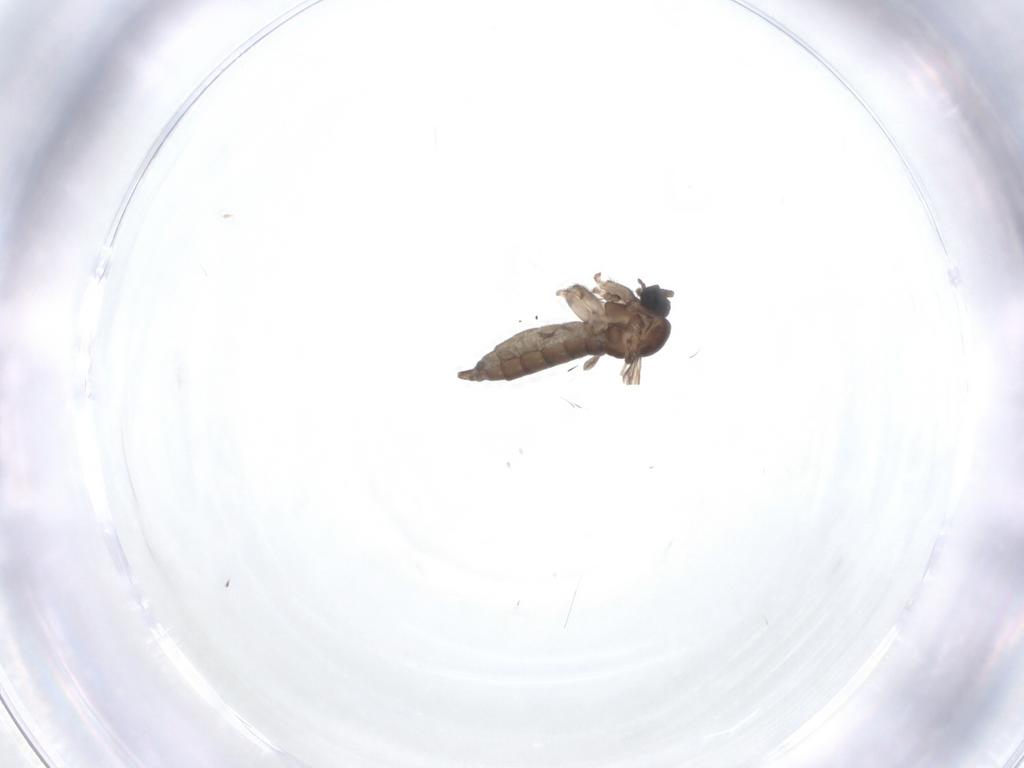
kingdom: Animalia
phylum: Arthropoda
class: Insecta
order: Diptera
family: Sciaridae
